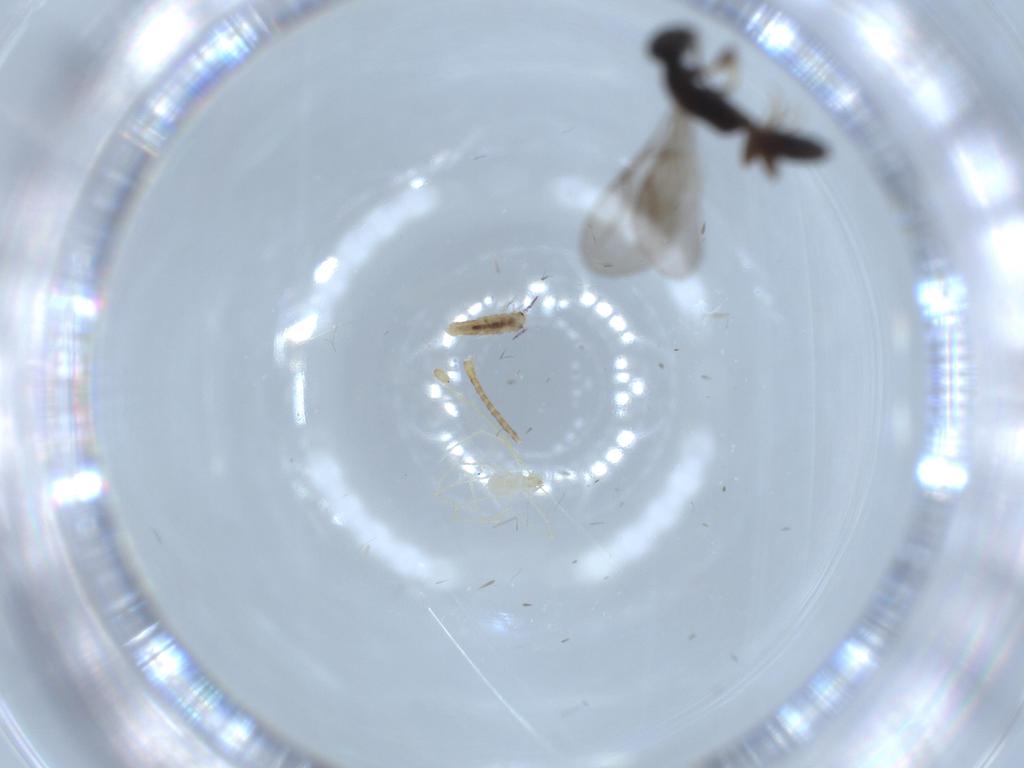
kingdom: Animalia
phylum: Arthropoda
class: Insecta
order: Hymenoptera
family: Bethylidae
